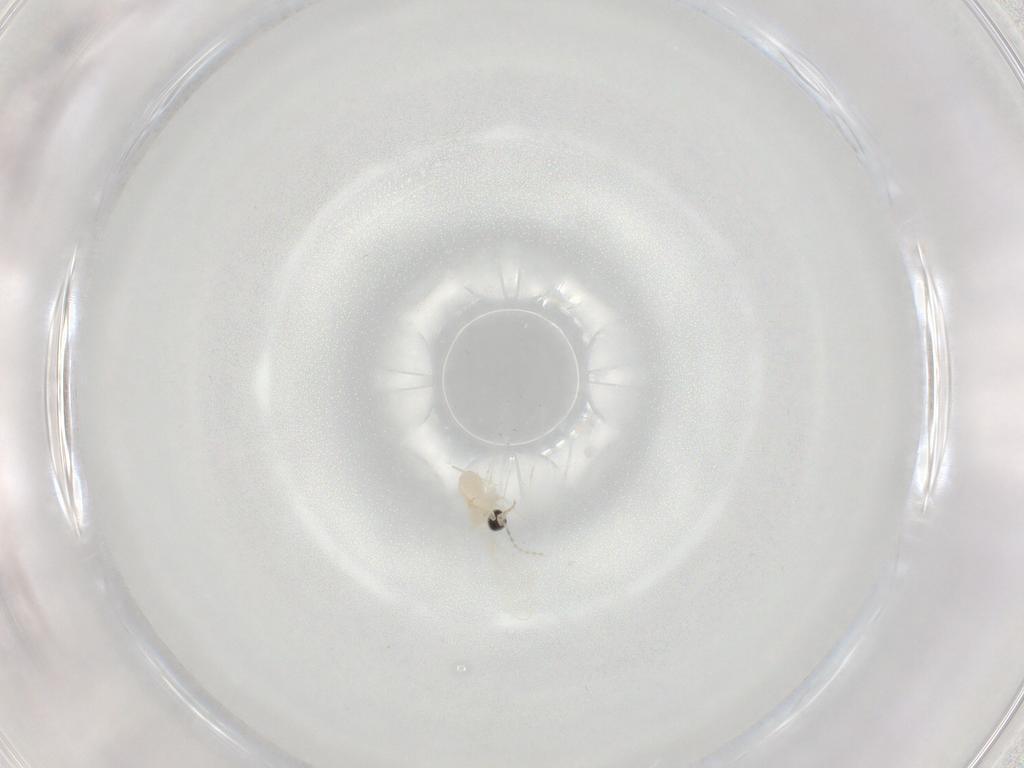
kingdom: Animalia
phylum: Arthropoda
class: Insecta
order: Diptera
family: Cecidomyiidae
